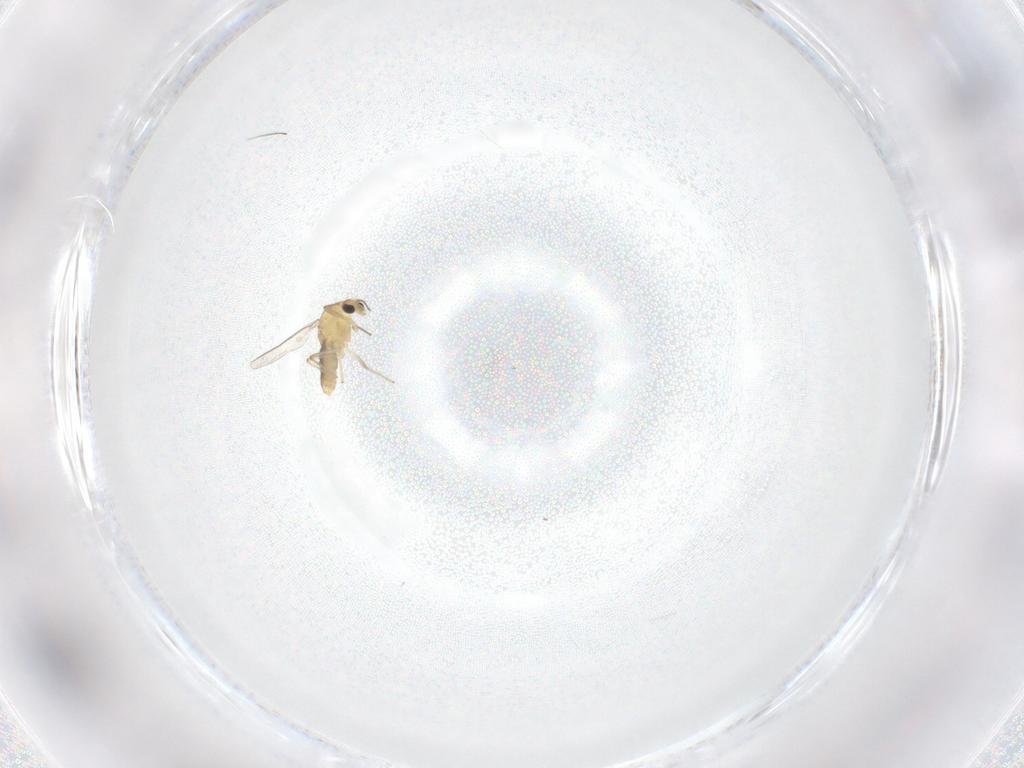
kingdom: Animalia
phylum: Arthropoda
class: Insecta
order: Diptera
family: Chironomidae
